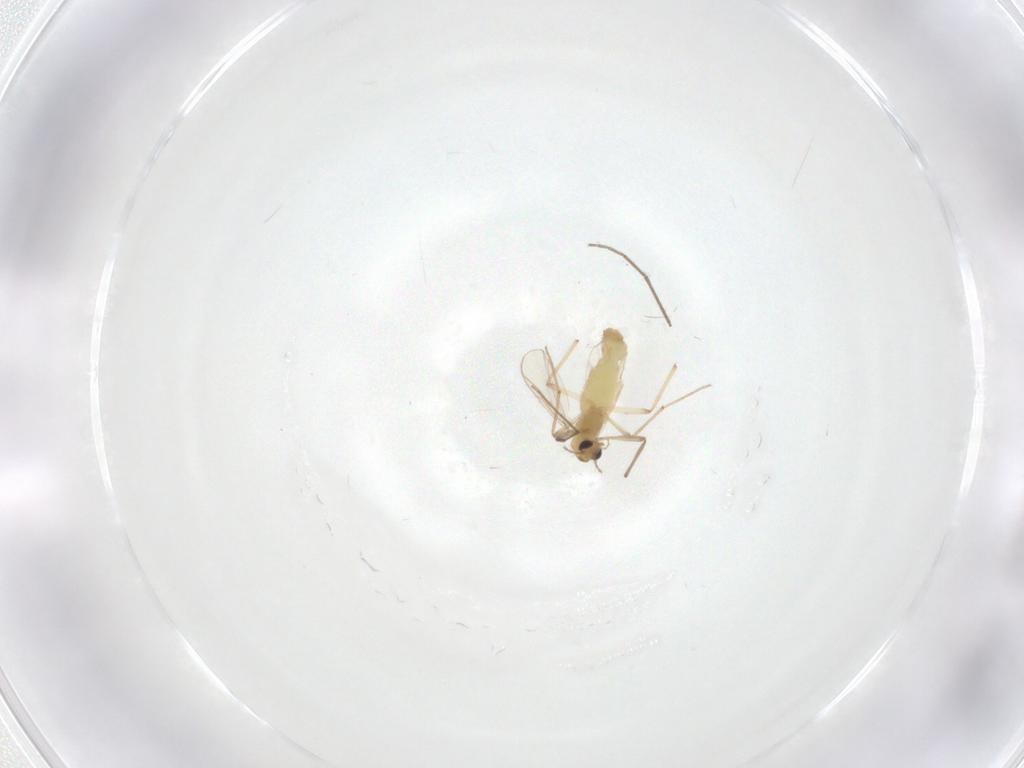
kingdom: Animalia
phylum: Arthropoda
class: Insecta
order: Diptera
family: Chironomidae
